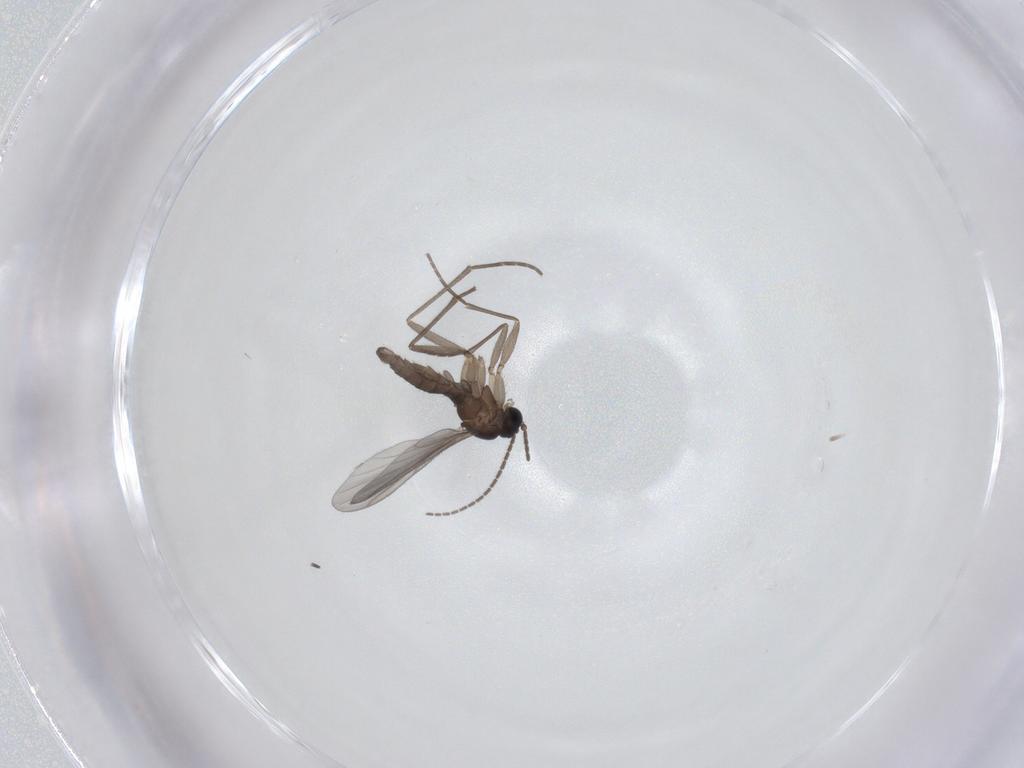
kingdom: Animalia
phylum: Arthropoda
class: Insecta
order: Diptera
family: Sciaridae
